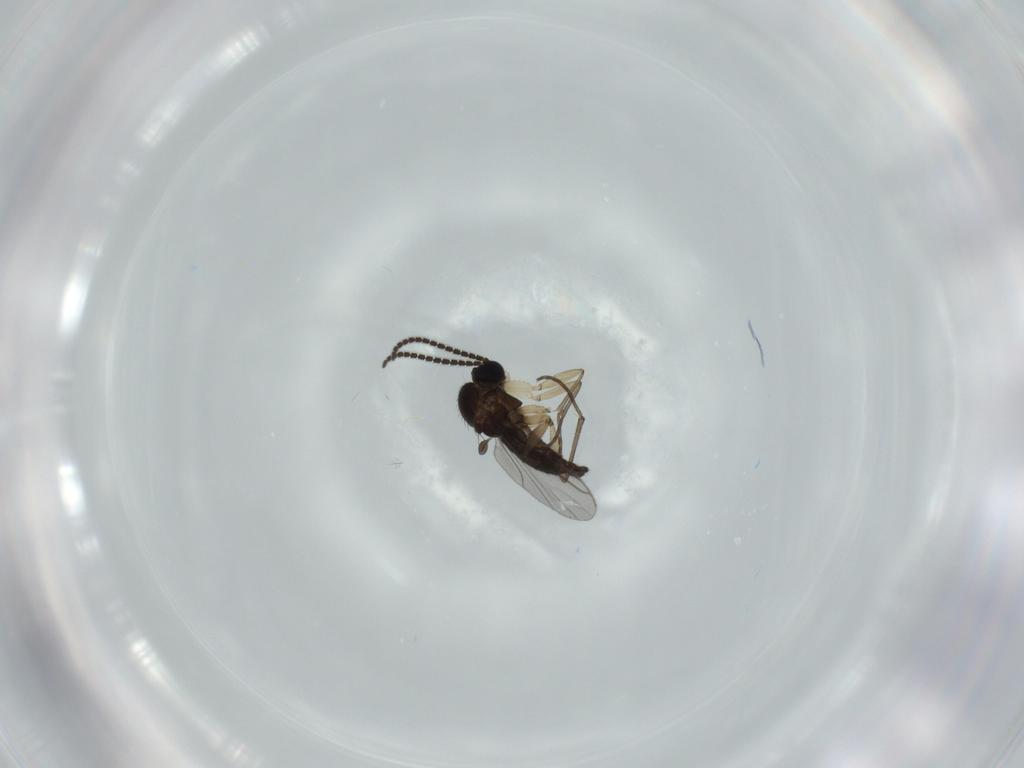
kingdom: Animalia
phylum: Arthropoda
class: Insecta
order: Diptera
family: Sciaridae
